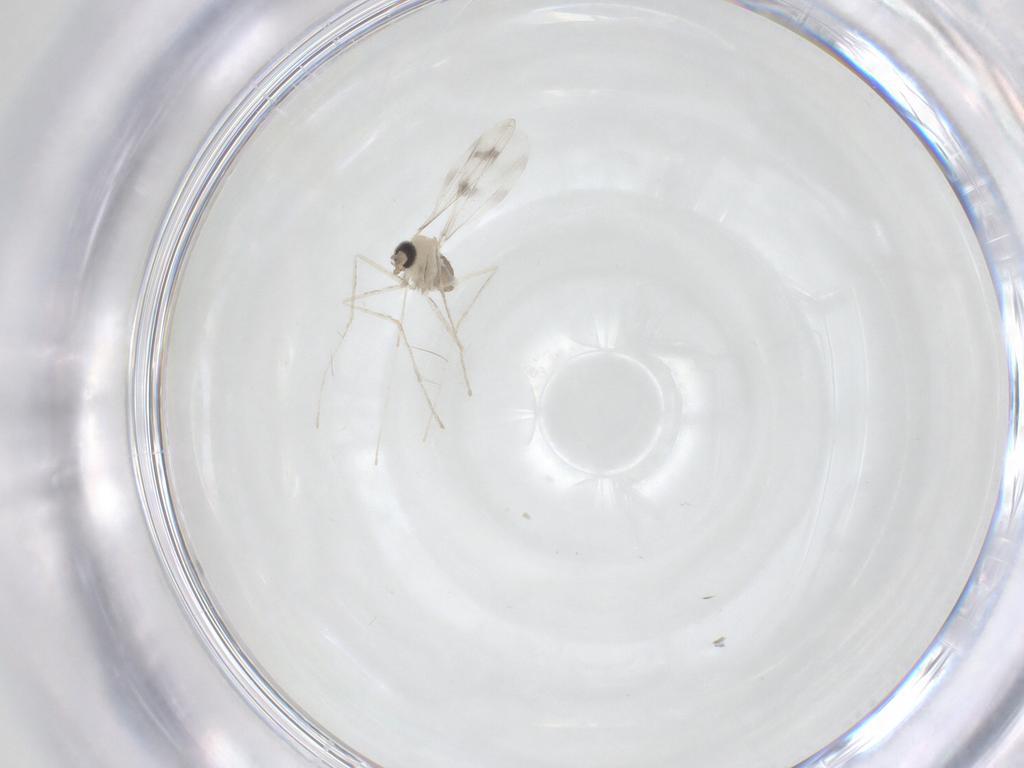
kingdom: Animalia
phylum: Arthropoda
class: Insecta
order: Diptera
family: Cecidomyiidae
